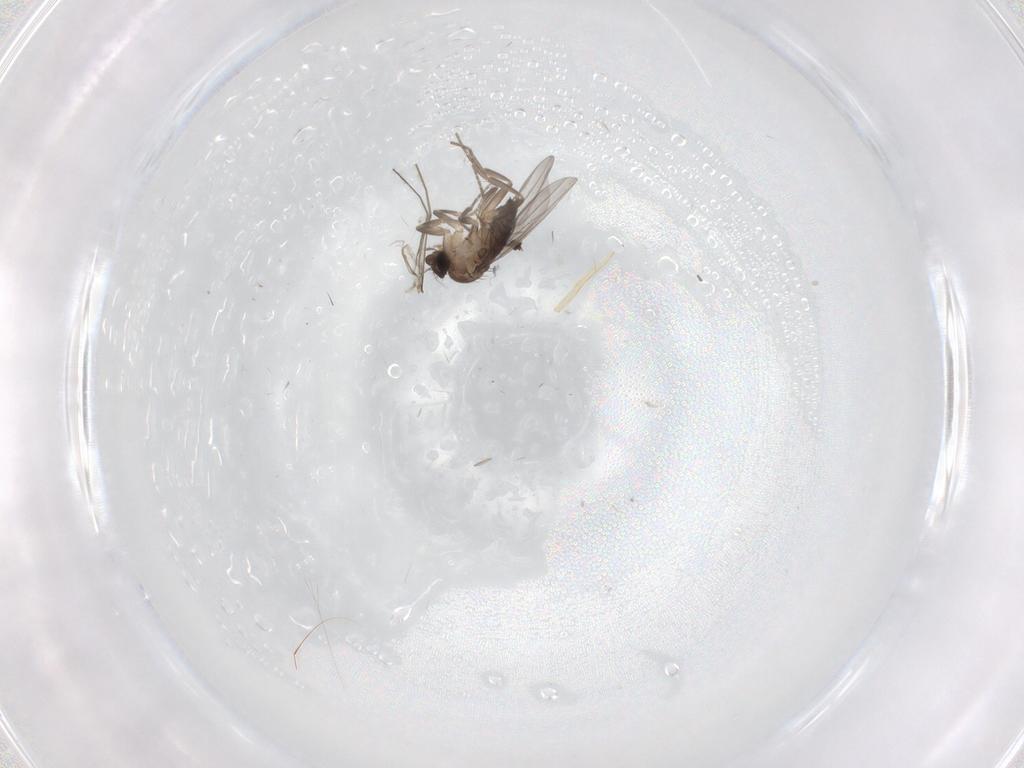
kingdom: Animalia
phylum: Arthropoda
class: Insecta
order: Diptera
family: Cecidomyiidae
